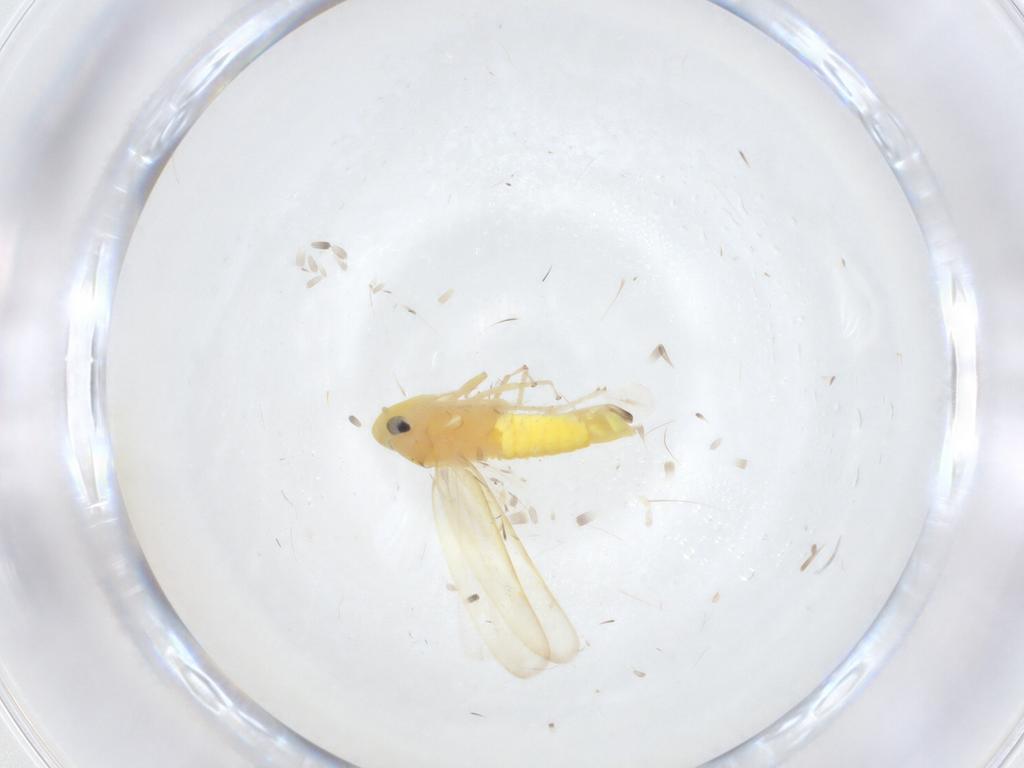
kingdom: Animalia
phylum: Arthropoda
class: Insecta
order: Hemiptera
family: Cicadellidae
